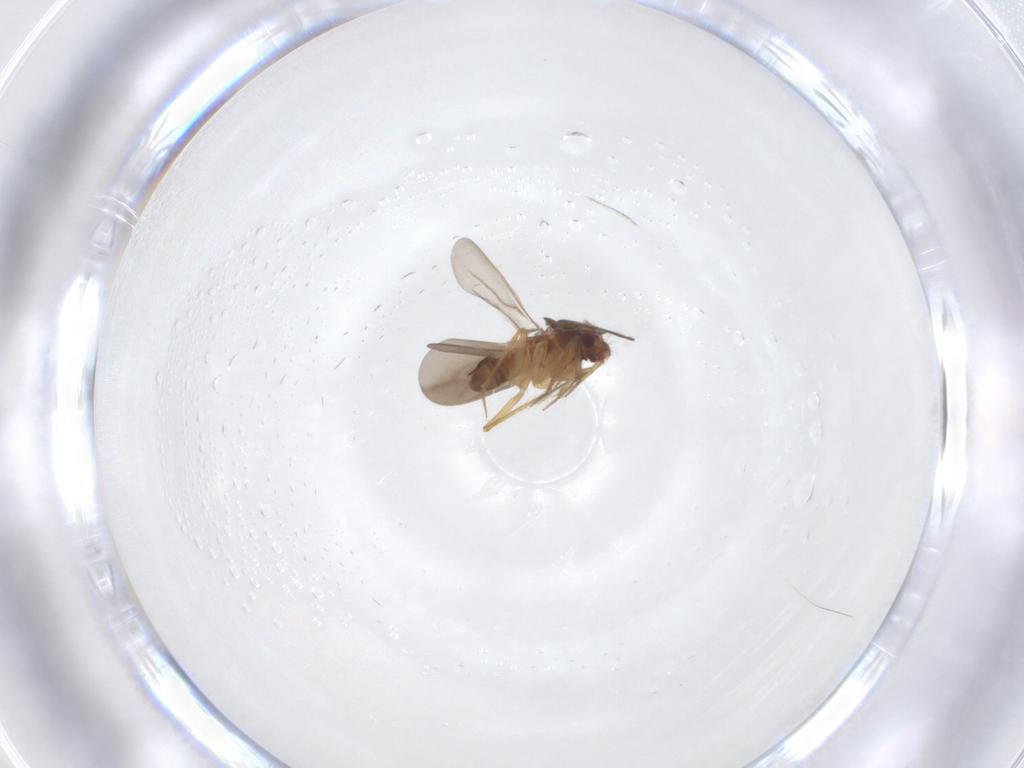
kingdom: Animalia
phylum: Arthropoda
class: Insecta
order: Hemiptera
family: Ceratocombidae
